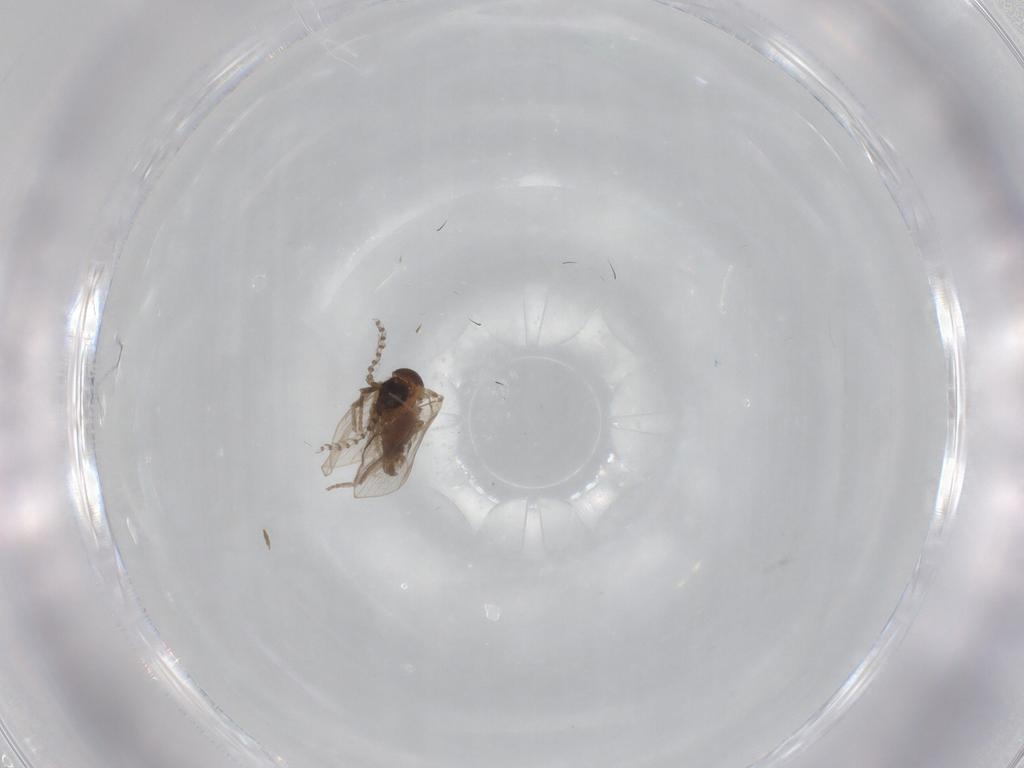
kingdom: Animalia
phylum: Arthropoda
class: Insecta
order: Diptera
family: Psychodidae
